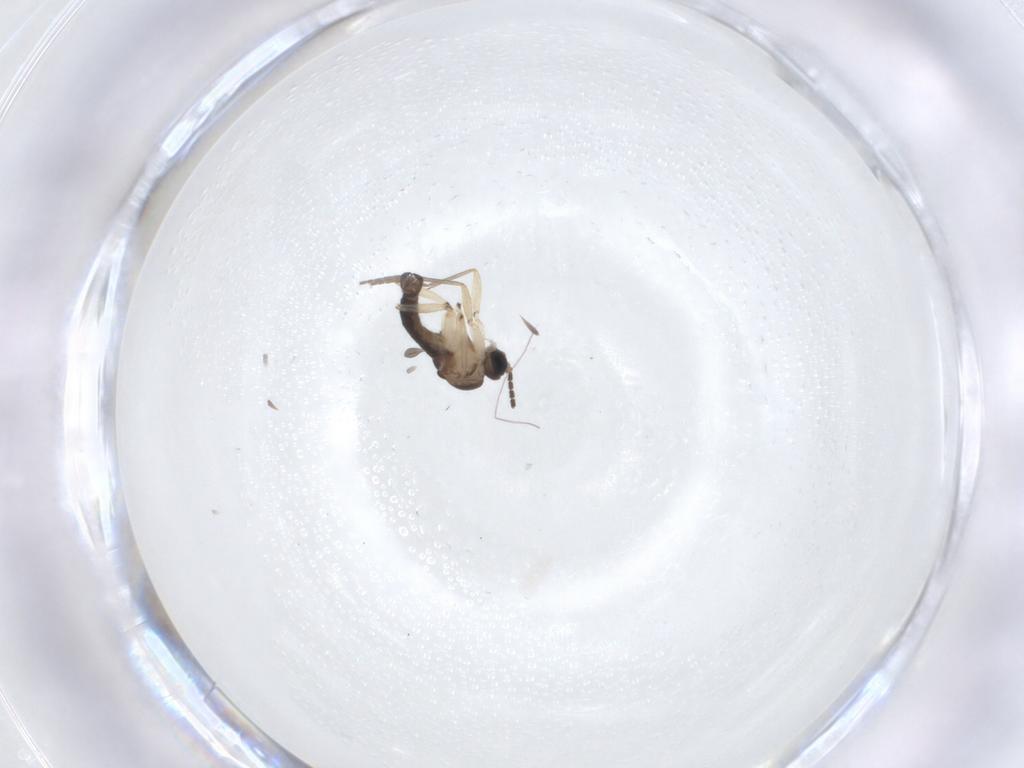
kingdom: Animalia
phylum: Arthropoda
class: Insecta
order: Diptera
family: Sciaridae
